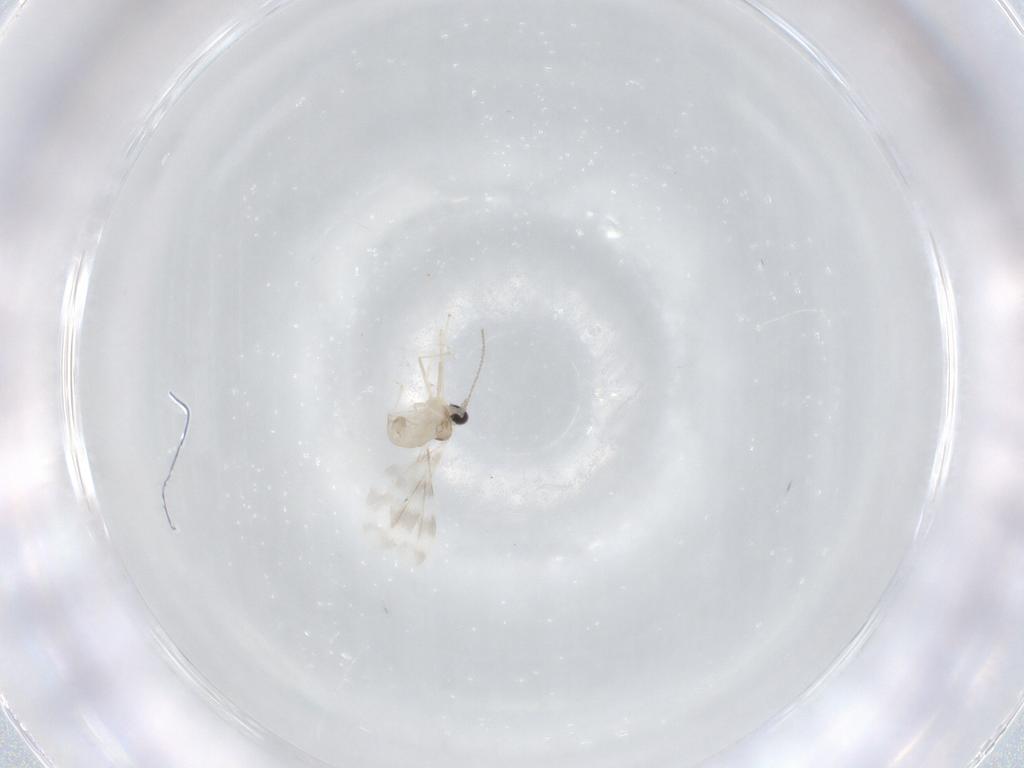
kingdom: Animalia
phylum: Arthropoda
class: Insecta
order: Diptera
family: Cecidomyiidae
